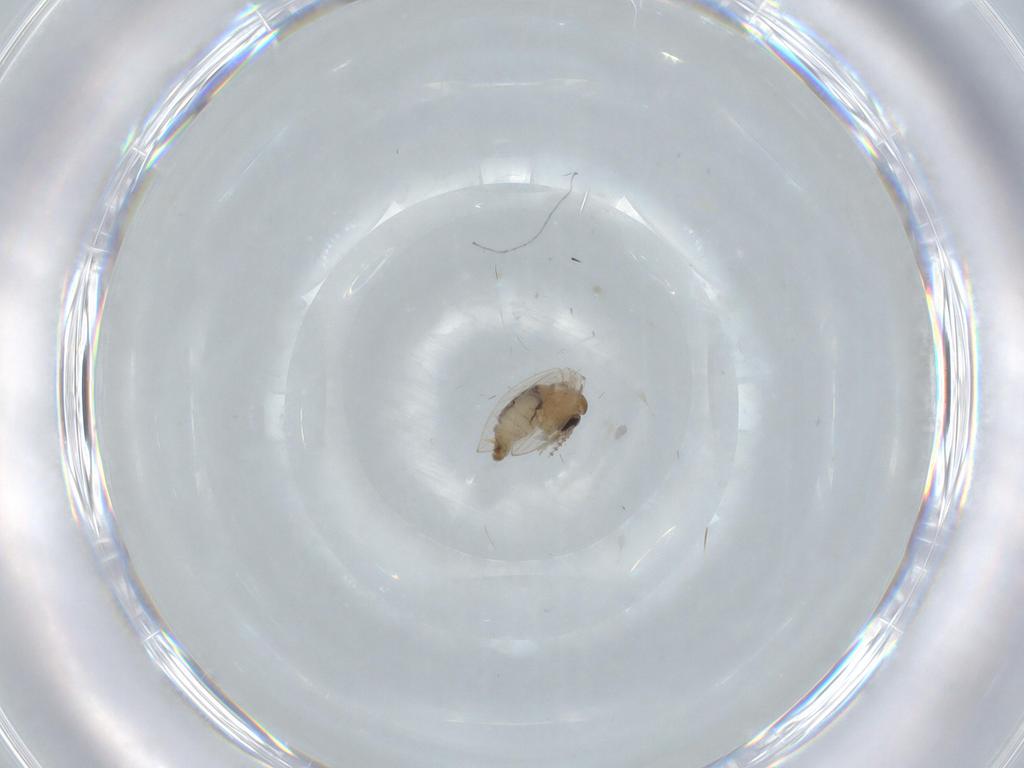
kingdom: Animalia
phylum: Arthropoda
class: Insecta
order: Diptera
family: Psychodidae
